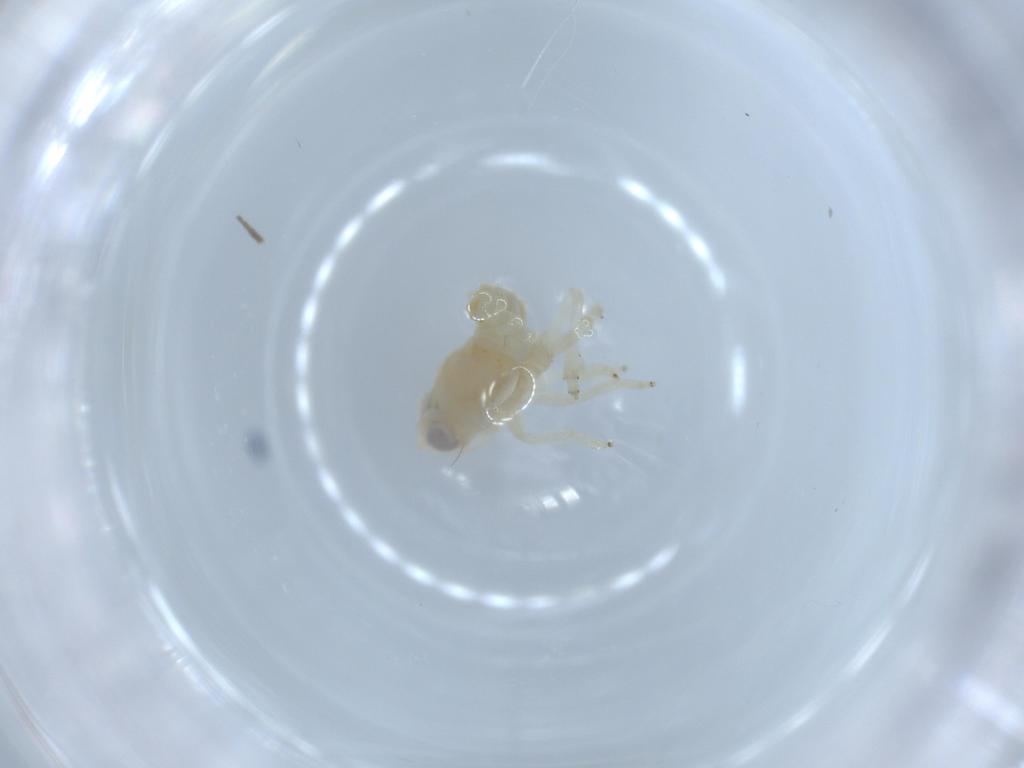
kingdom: Animalia
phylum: Arthropoda
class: Insecta
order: Hemiptera
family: Nogodinidae
